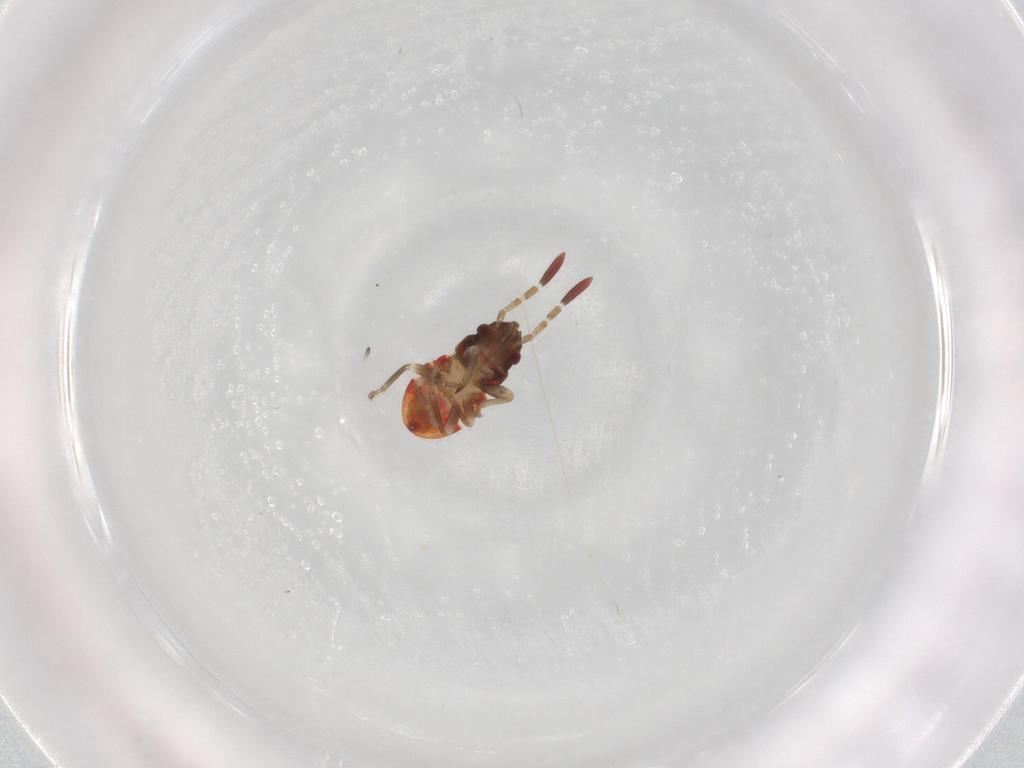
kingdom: Animalia
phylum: Arthropoda
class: Insecta
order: Hemiptera
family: Rhyparochromidae
